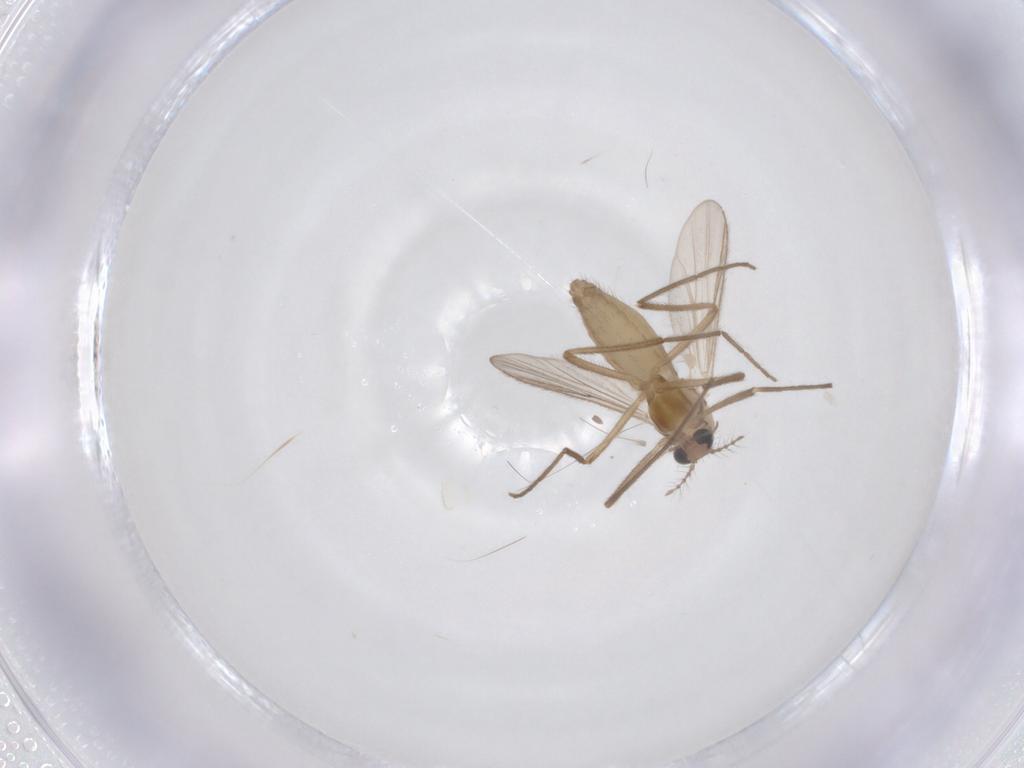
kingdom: Animalia
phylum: Arthropoda
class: Insecta
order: Diptera
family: Chironomidae
